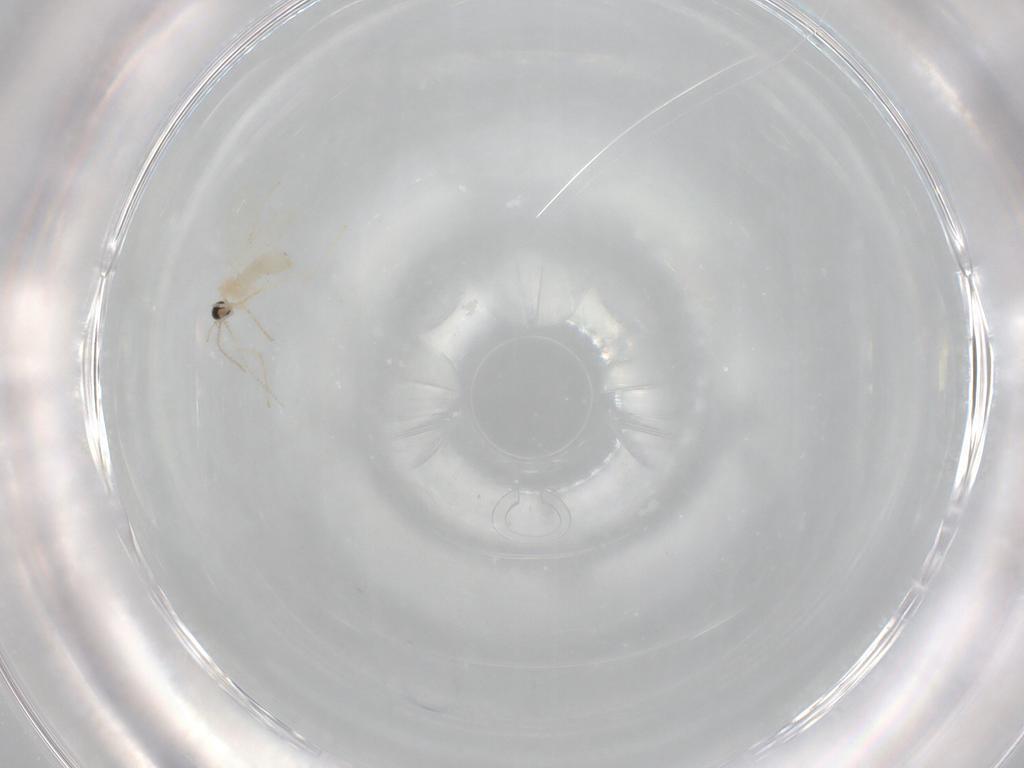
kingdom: Animalia
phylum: Arthropoda
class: Insecta
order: Diptera
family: Cecidomyiidae
